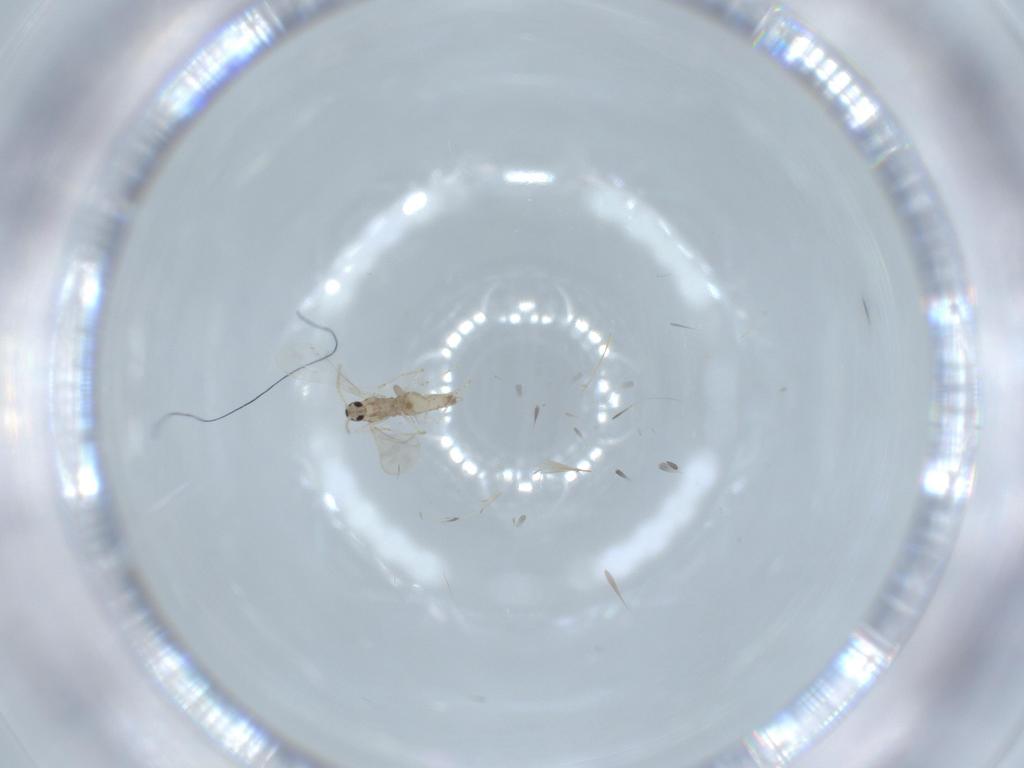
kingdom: Animalia
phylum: Arthropoda
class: Insecta
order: Diptera
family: Cecidomyiidae
